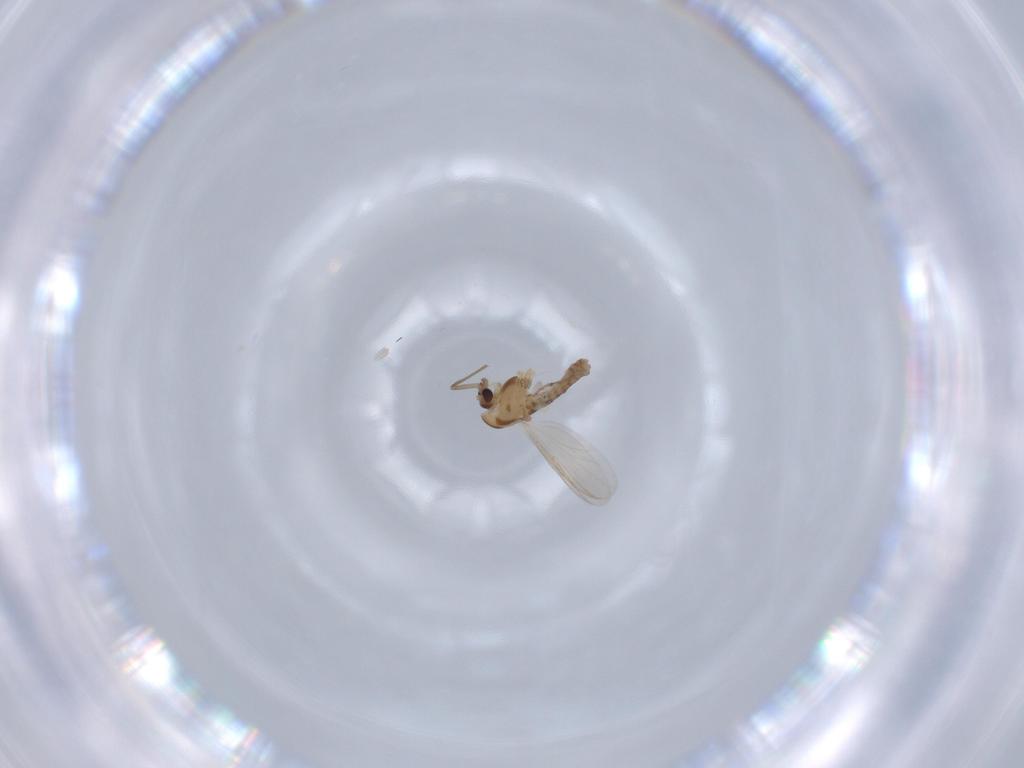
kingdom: Animalia
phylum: Arthropoda
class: Insecta
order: Diptera
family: Chironomidae
